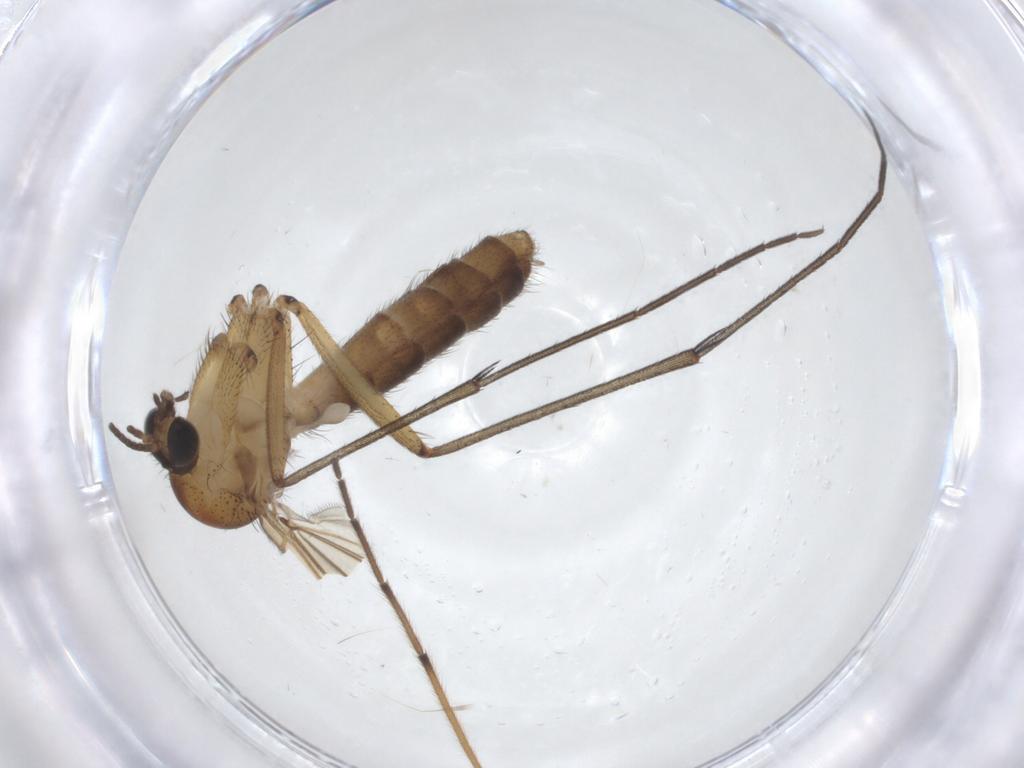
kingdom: Animalia
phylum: Arthropoda
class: Insecta
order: Diptera
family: Mycetophilidae
